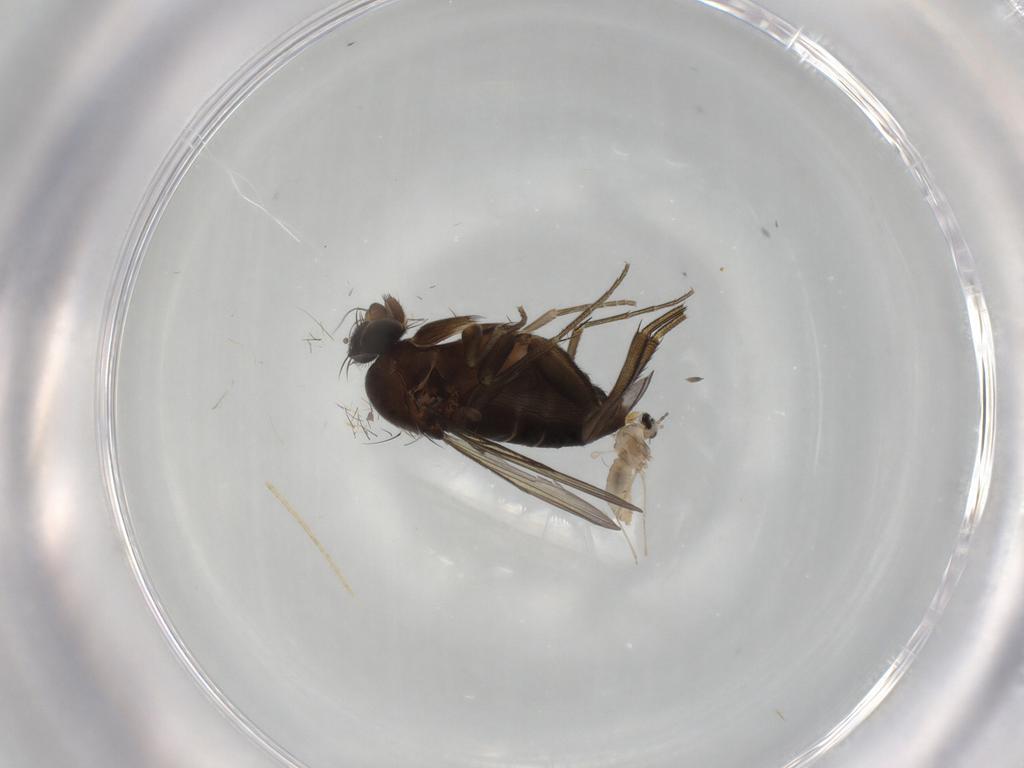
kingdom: Animalia
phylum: Arthropoda
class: Insecta
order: Diptera
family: Phoridae
